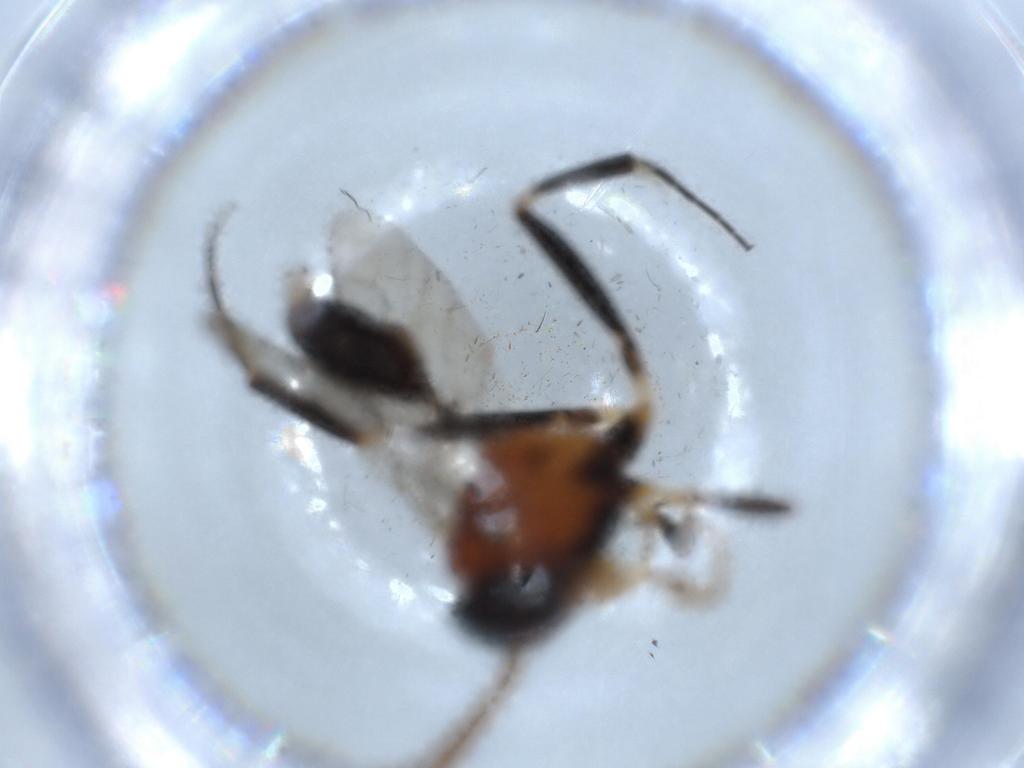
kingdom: Animalia
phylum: Arthropoda
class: Insecta
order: Hymenoptera
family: Evaniidae
